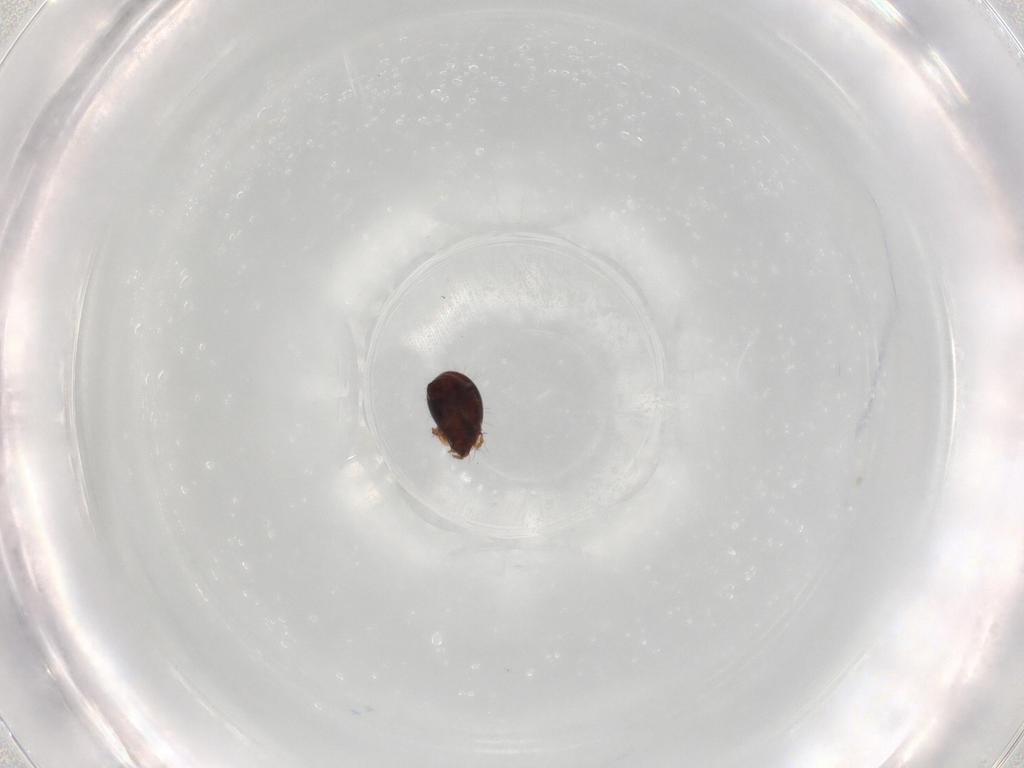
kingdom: Animalia
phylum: Arthropoda
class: Arachnida
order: Sarcoptiformes
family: Humerobatidae
